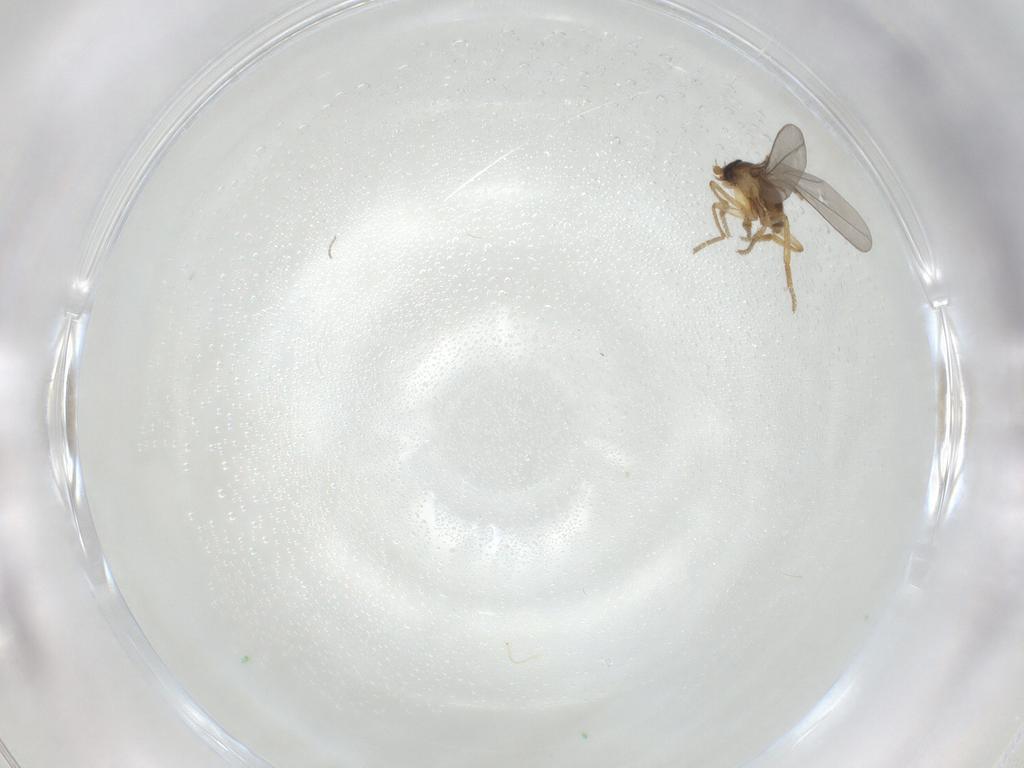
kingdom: Animalia
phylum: Arthropoda
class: Insecta
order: Diptera
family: Phoridae
